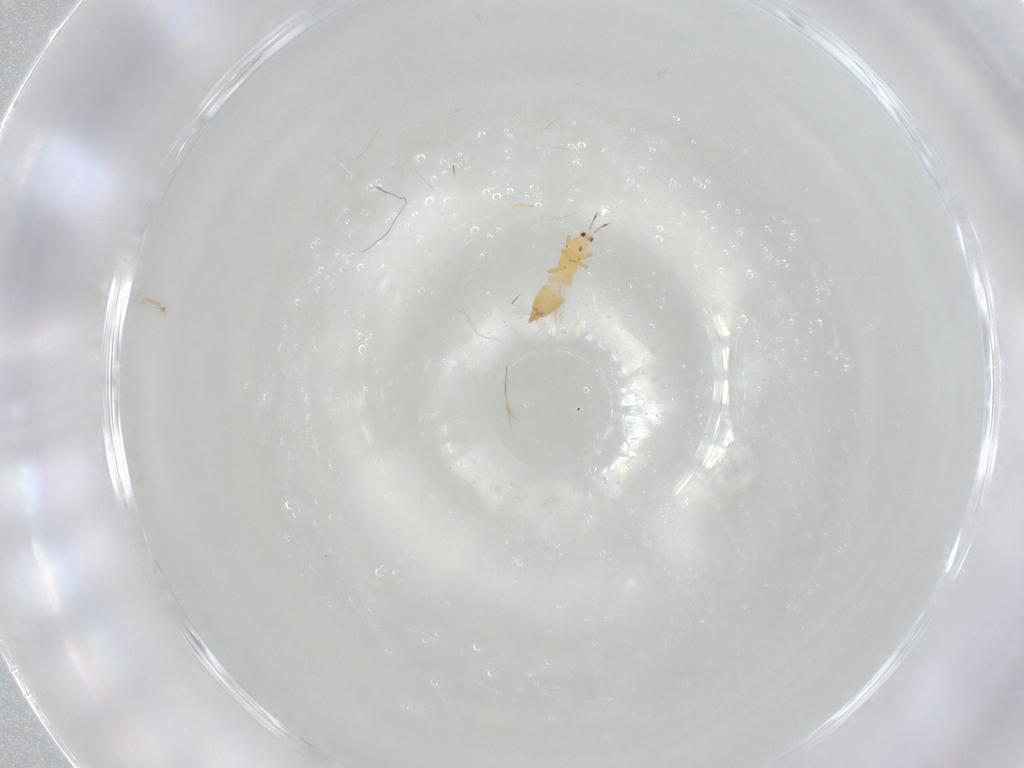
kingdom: Animalia
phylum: Arthropoda
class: Insecta
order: Thysanoptera
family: Thripidae
